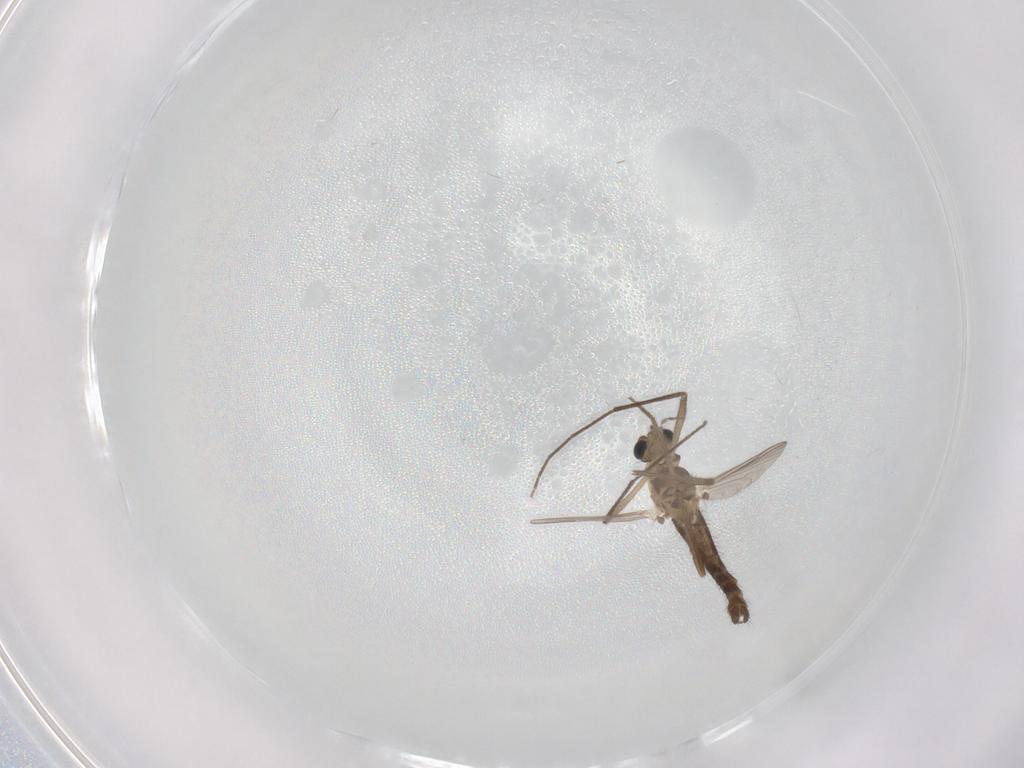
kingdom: Animalia
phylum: Arthropoda
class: Insecta
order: Diptera
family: Chironomidae
